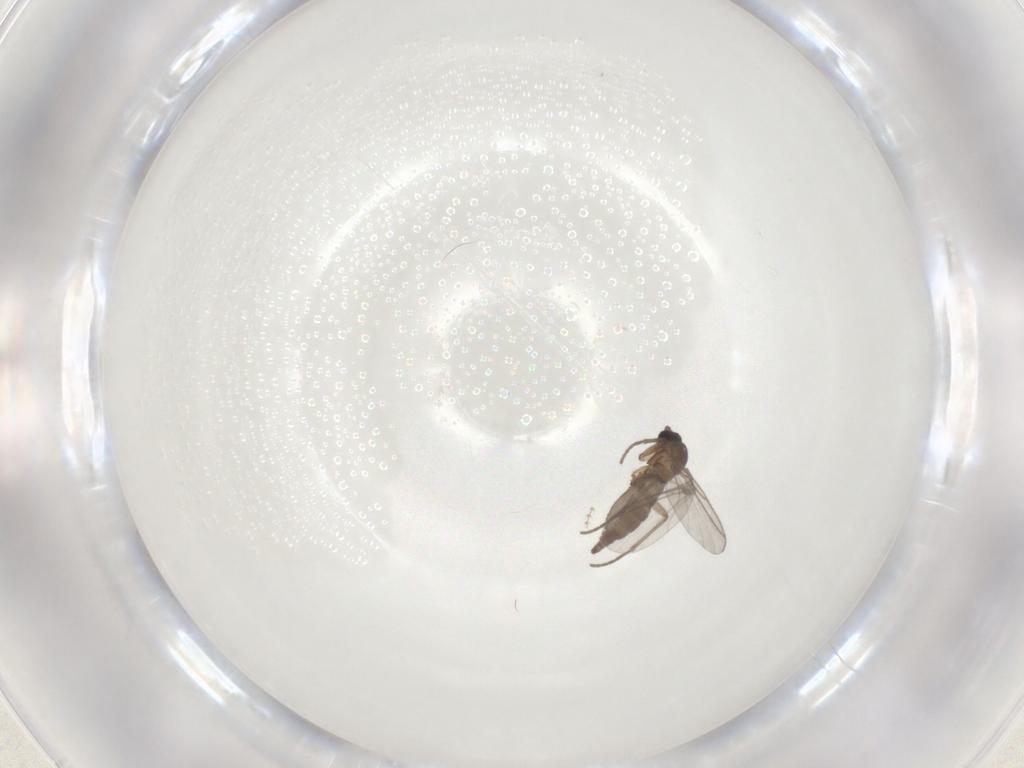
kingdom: Animalia
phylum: Arthropoda
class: Insecta
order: Diptera
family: Sciaridae
